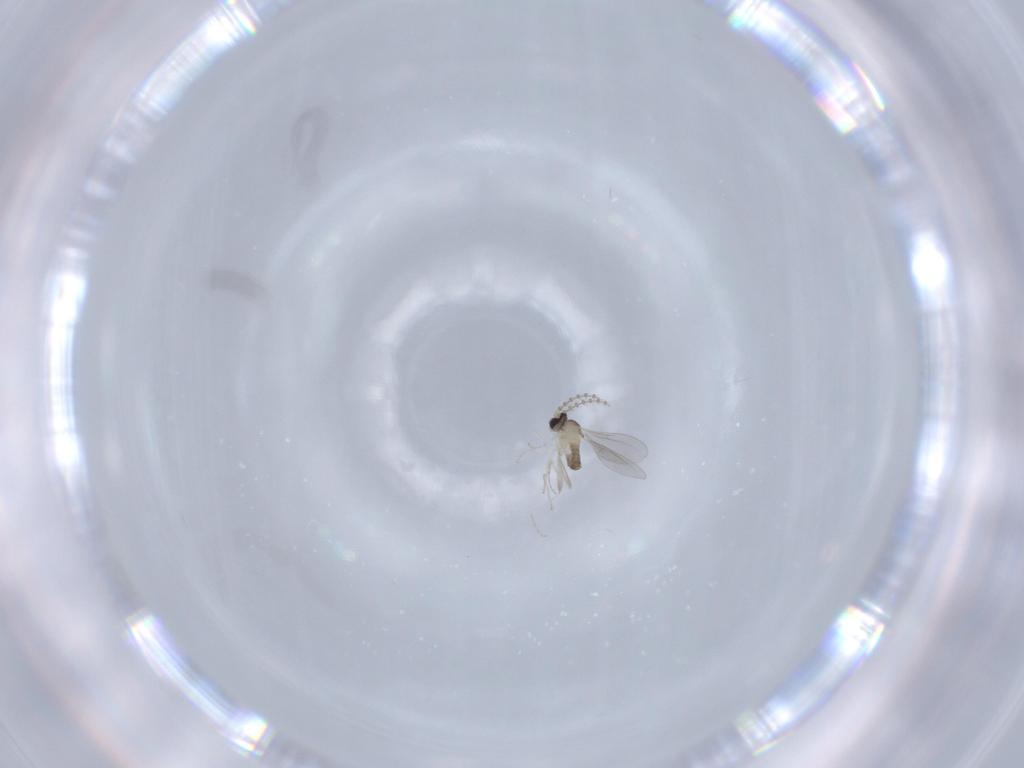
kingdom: Animalia
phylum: Arthropoda
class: Insecta
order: Diptera
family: Cecidomyiidae
